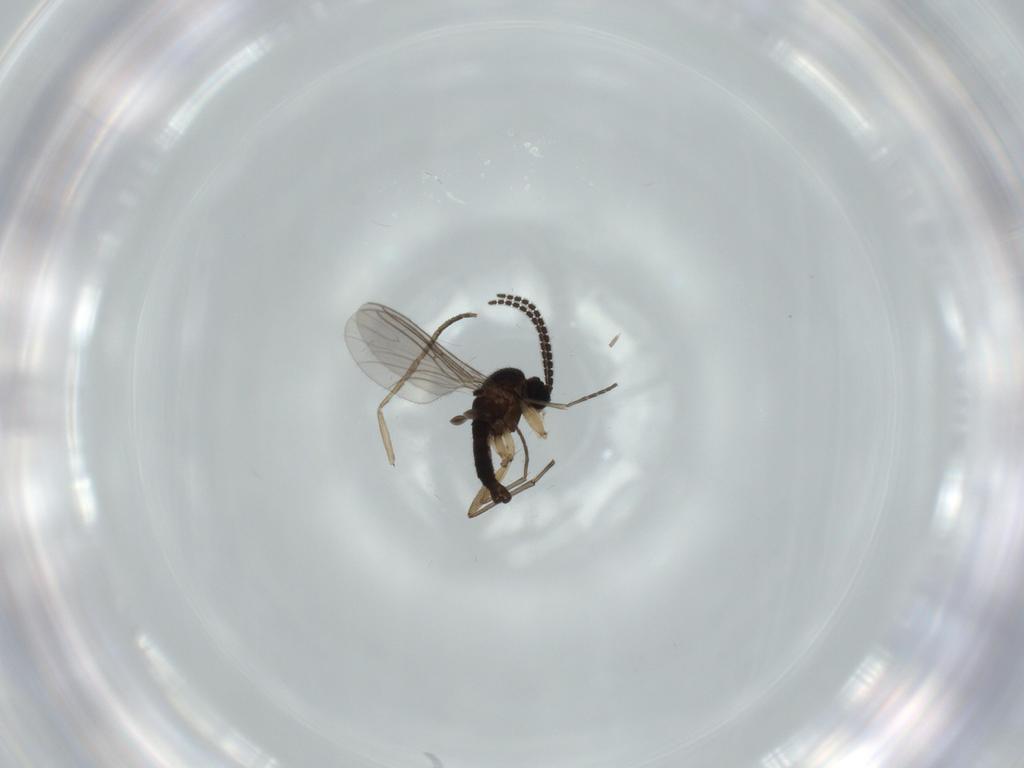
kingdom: Animalia
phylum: Arthropoda
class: Insecta
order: Diptera
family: Sciaridae
